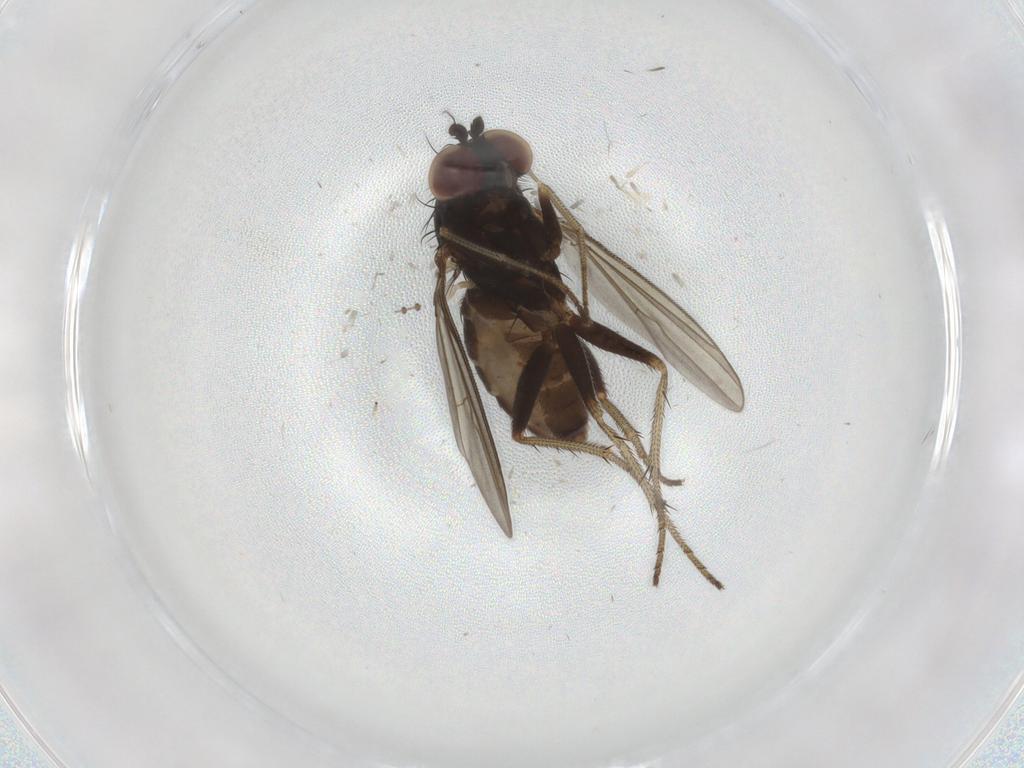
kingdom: Animalia
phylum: Arthropoda
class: Insecta
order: Diptera
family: Dolichopodidae
